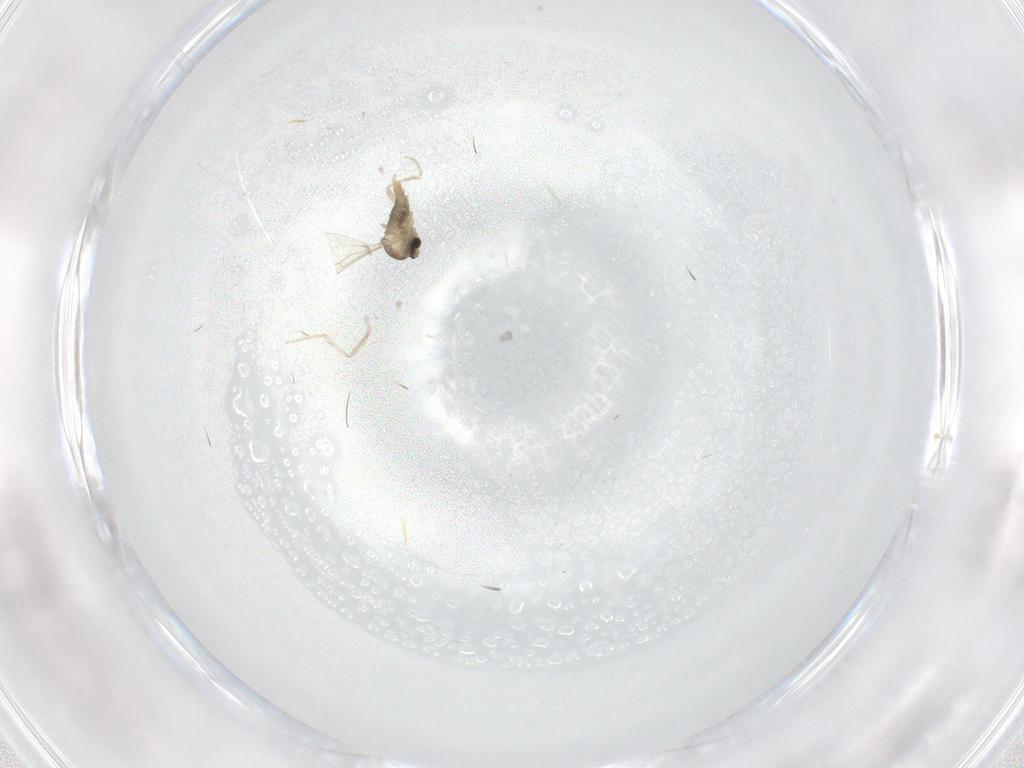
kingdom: Animalia
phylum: Arthropoda
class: Insecta
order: Diptera
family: Cecidomyiidae
